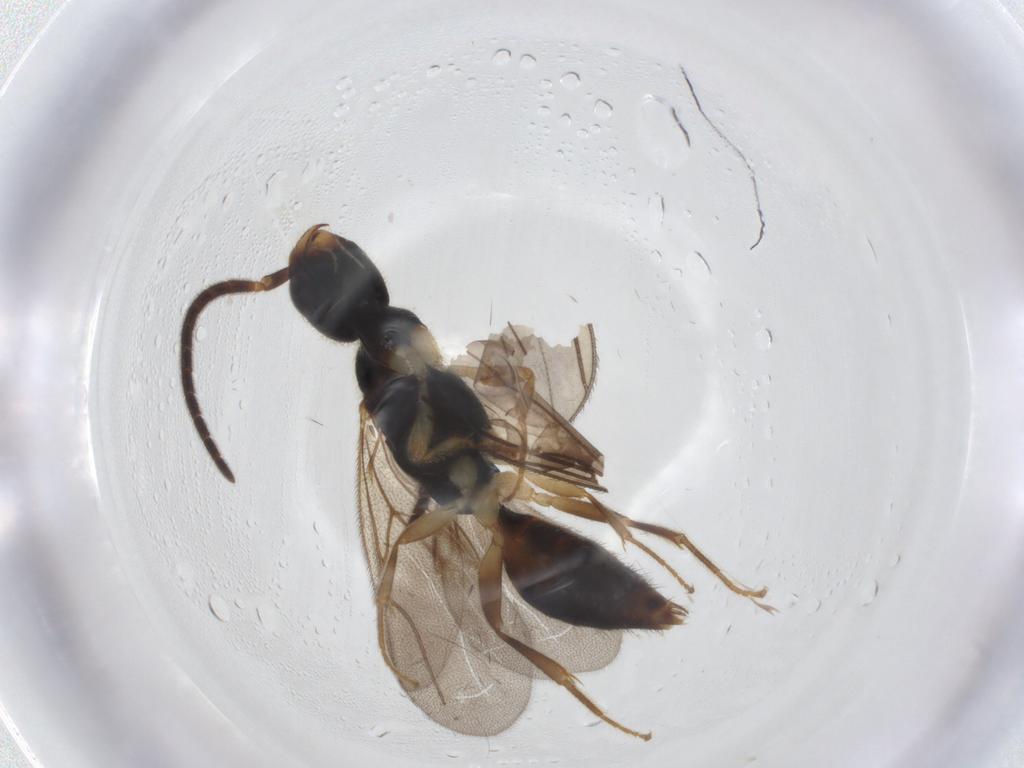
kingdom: Animalia
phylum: Arthropoda
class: Insecta
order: Hymenoptera
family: Bethylidae
